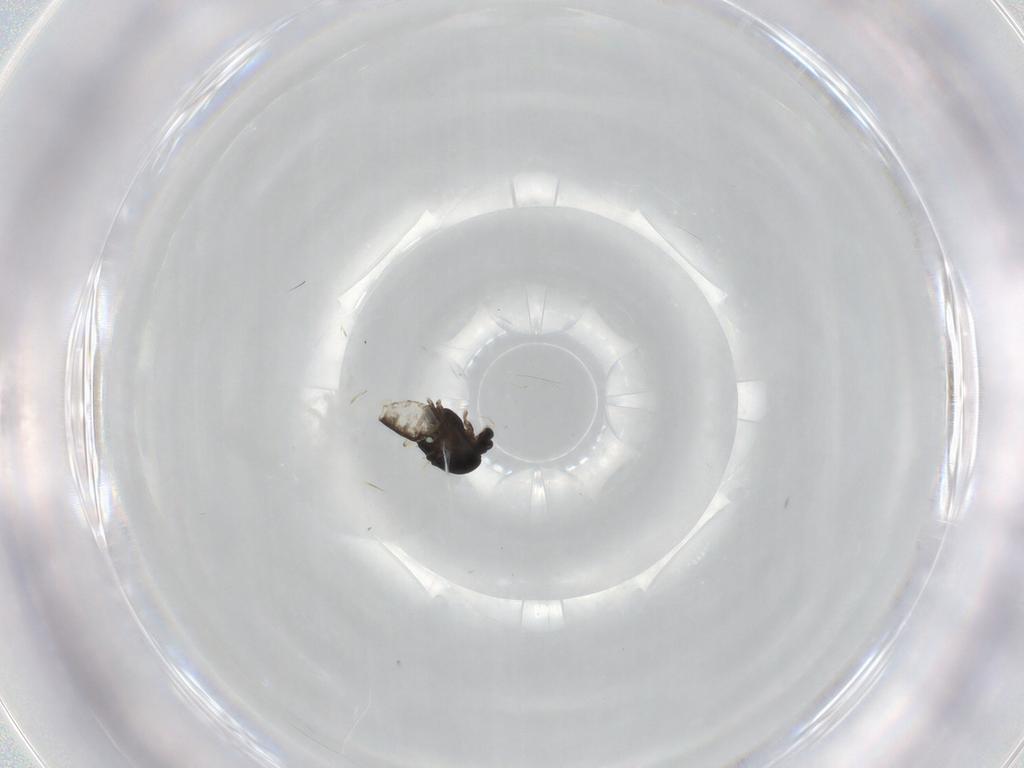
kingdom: Animalia
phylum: Arthropoda
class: Insecta
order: Diptera
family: Chironomidae
